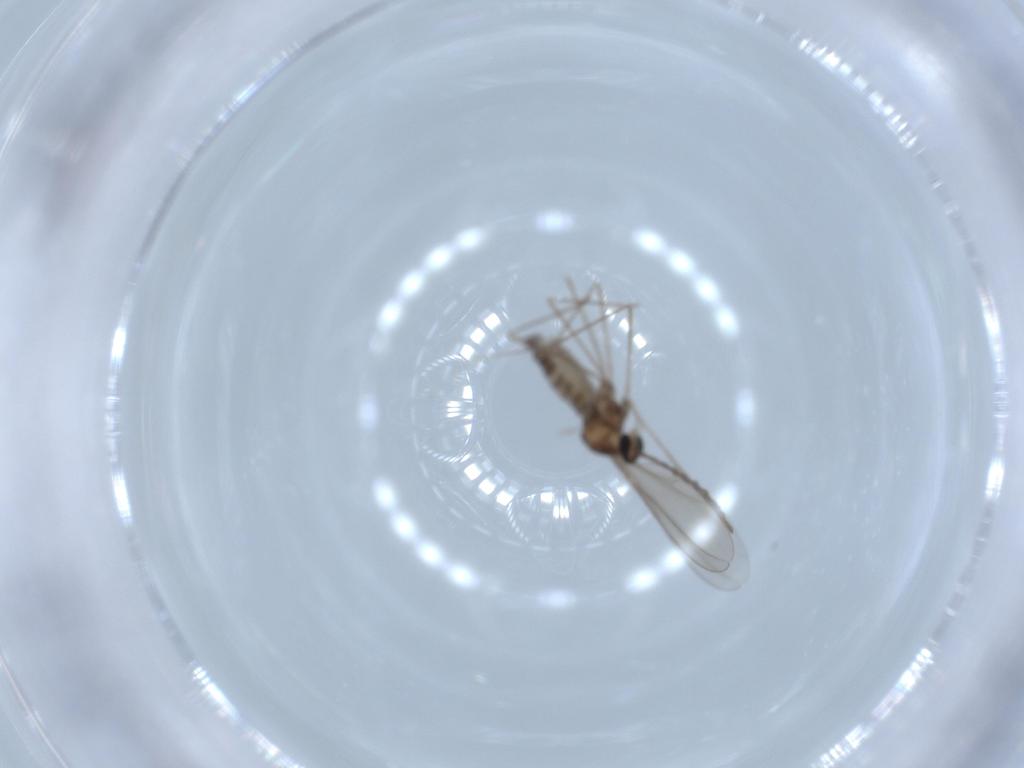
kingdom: Animalia
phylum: Arthropoda
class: Insecta
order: Diptera
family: Cecidomyiidae
